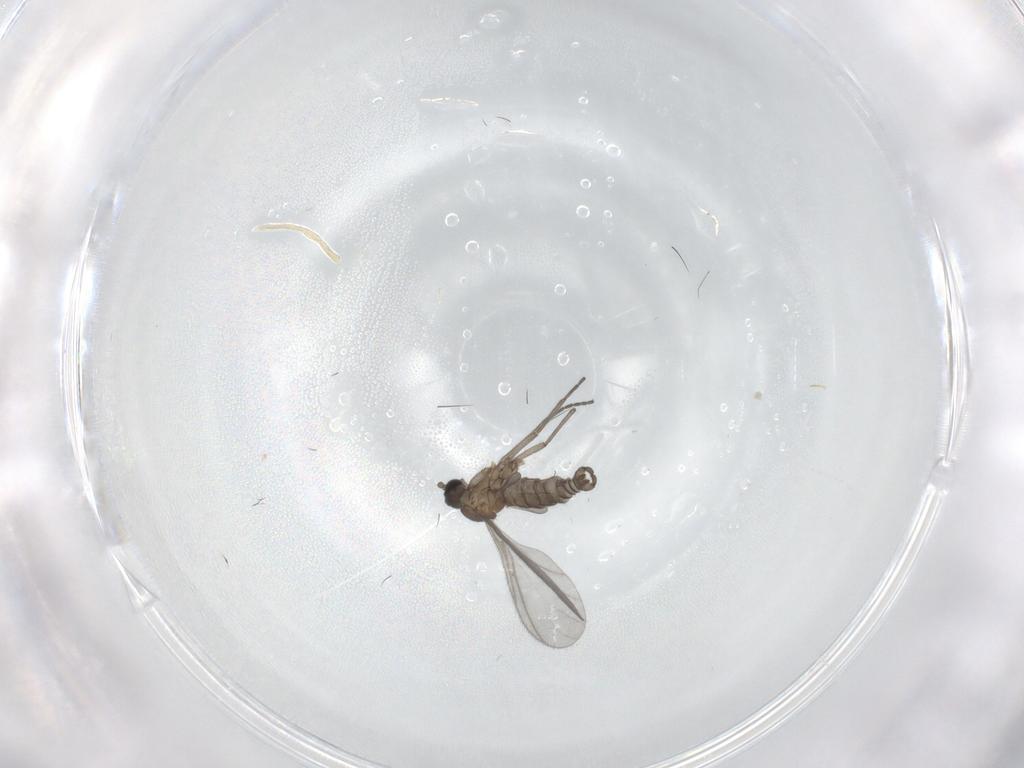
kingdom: Animalia
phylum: Arthropoda
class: Insecta
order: Diptera
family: Sciaridae
